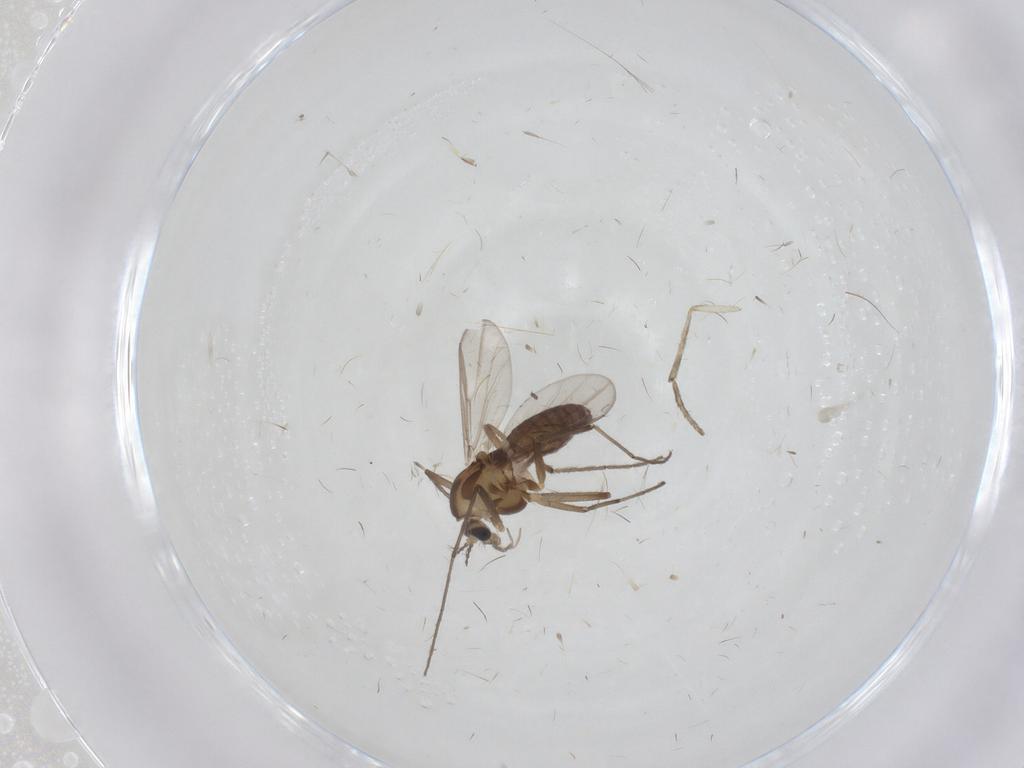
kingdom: Animalia
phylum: Arthropoda
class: Insecta
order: Diptera
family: Chironomidae
